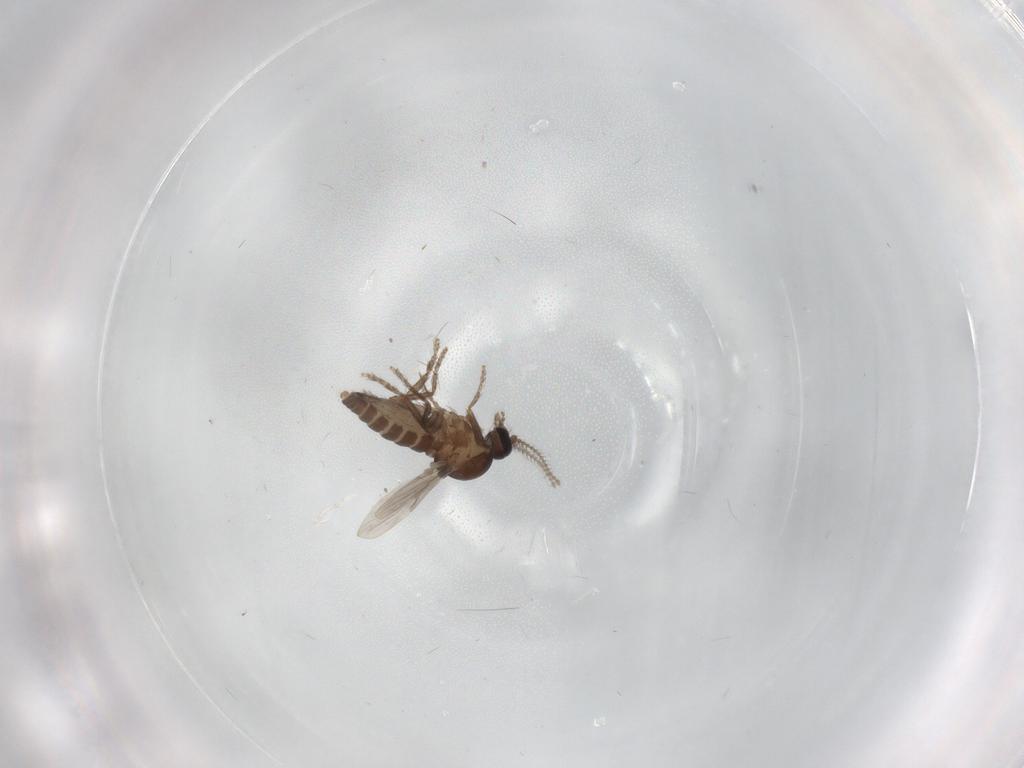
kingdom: Animalia
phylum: Arthropoda
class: Insecta
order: Diptera
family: Ceratopogonidae
